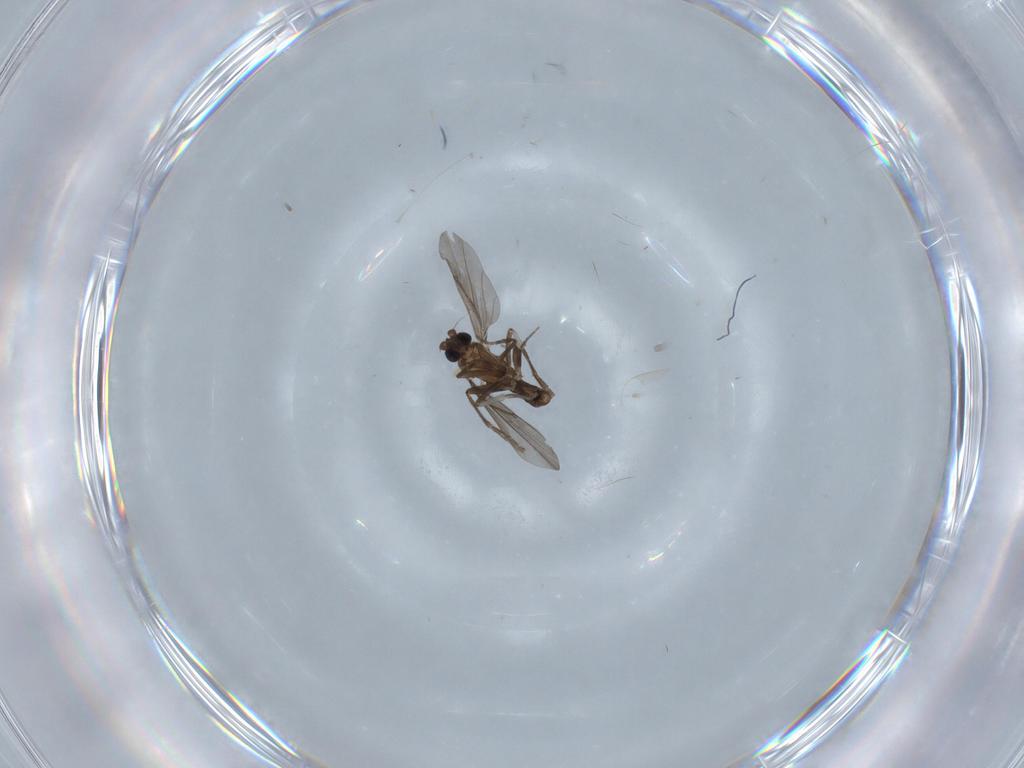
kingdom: Animalia
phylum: Arthropoda
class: Insecta
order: Diptera
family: Phoridae
